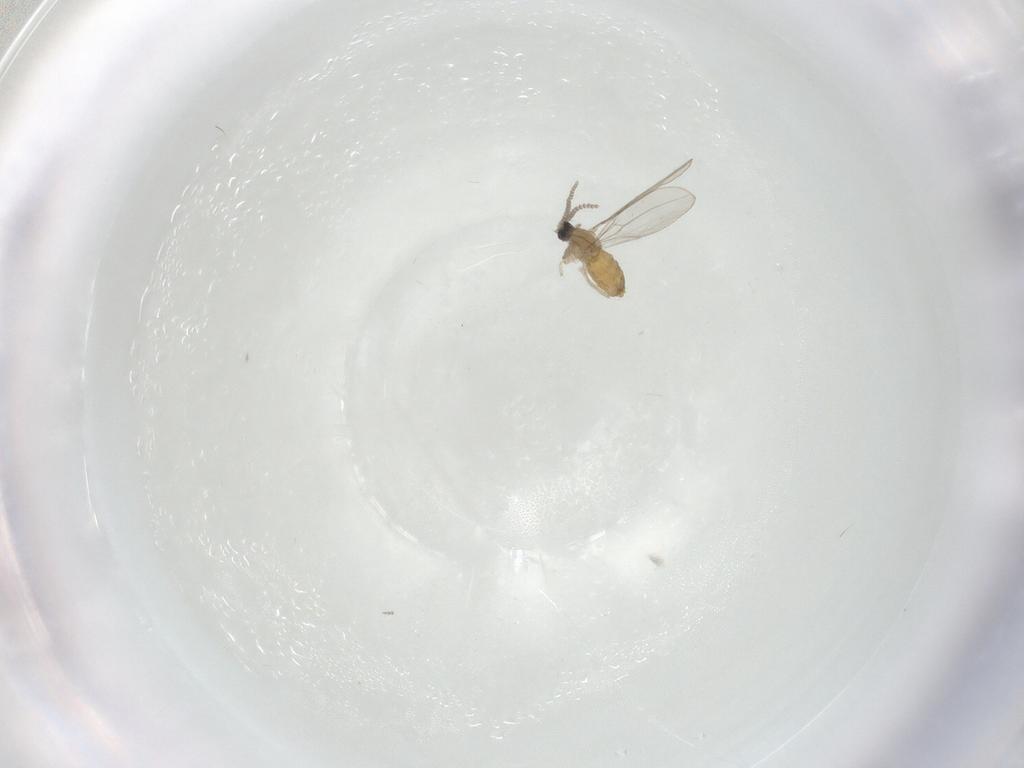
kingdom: Animalia
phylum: Arthropoda
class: Insecta
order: Diptera
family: Cecidomyiidae
